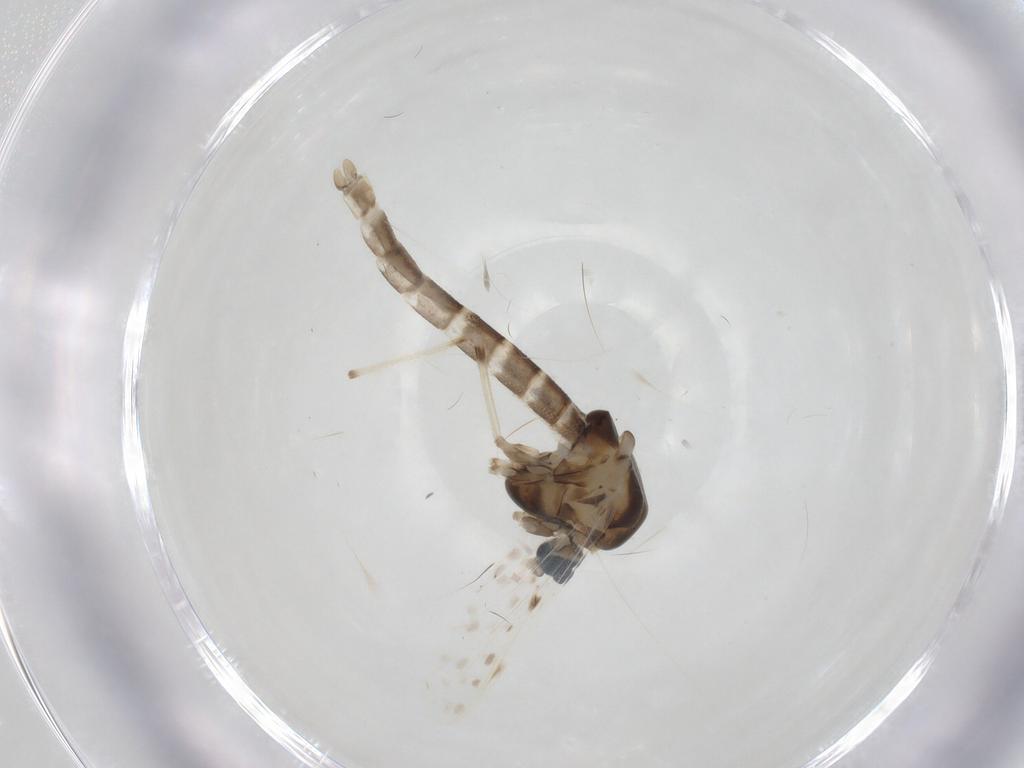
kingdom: Animalia
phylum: Arthropoda
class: Insecta
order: Diptera
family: Chironomidae
